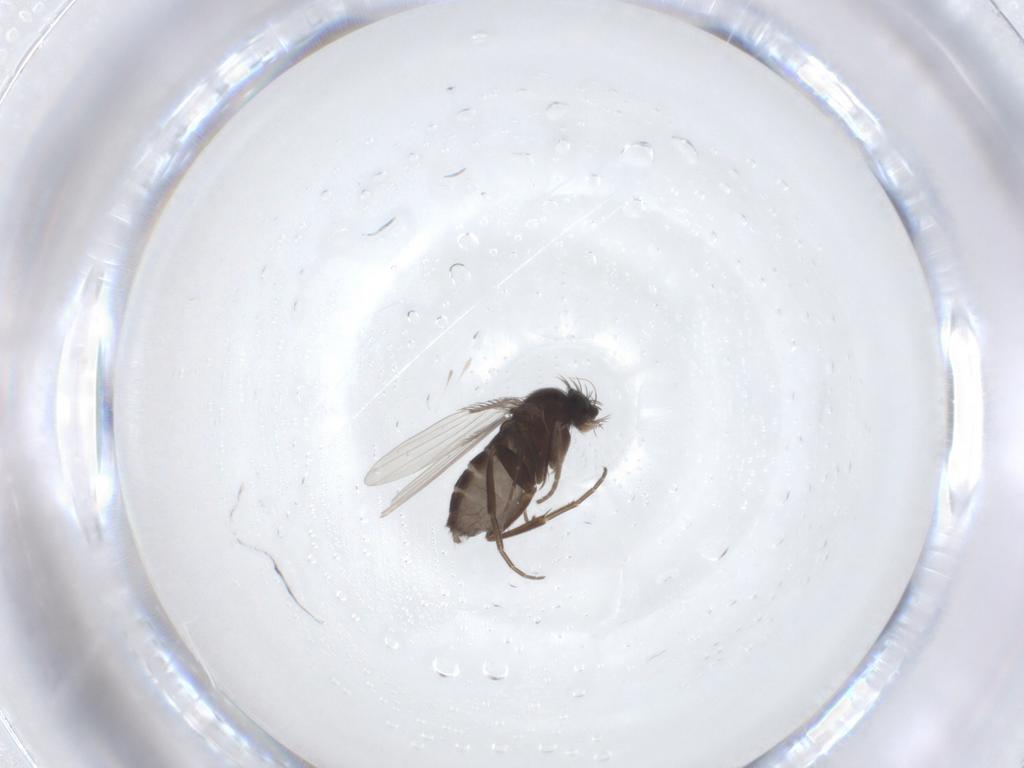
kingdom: Animalia
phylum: Arthropoda
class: Insecta
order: Diptera
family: Phoridae
